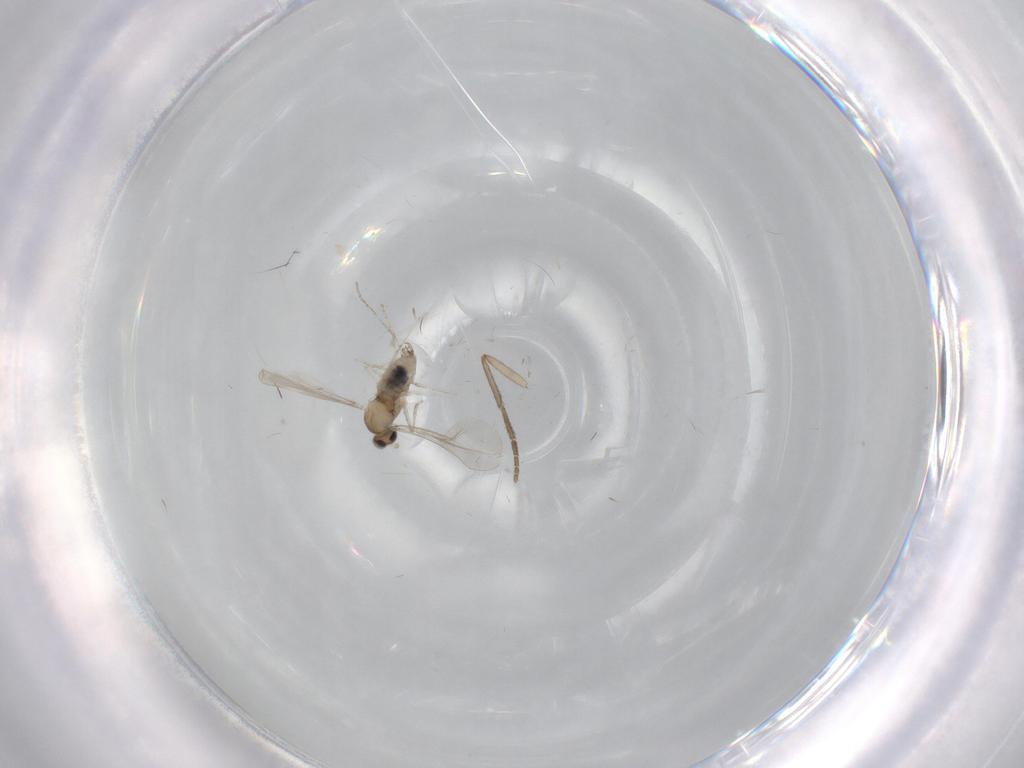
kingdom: Animalia
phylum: Arthropoda
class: Insecta
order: Diptera
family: Cecidomyiidae
